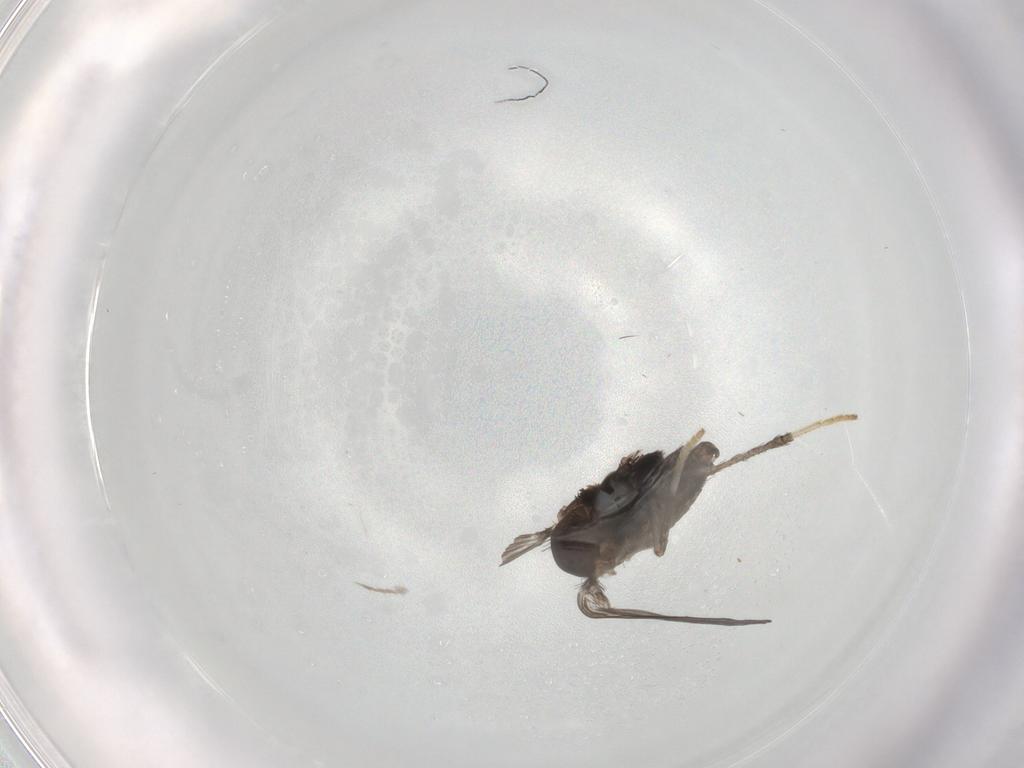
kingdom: Animalia
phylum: Arthropoda
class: Insecta
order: Diptera
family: Psychodidae
